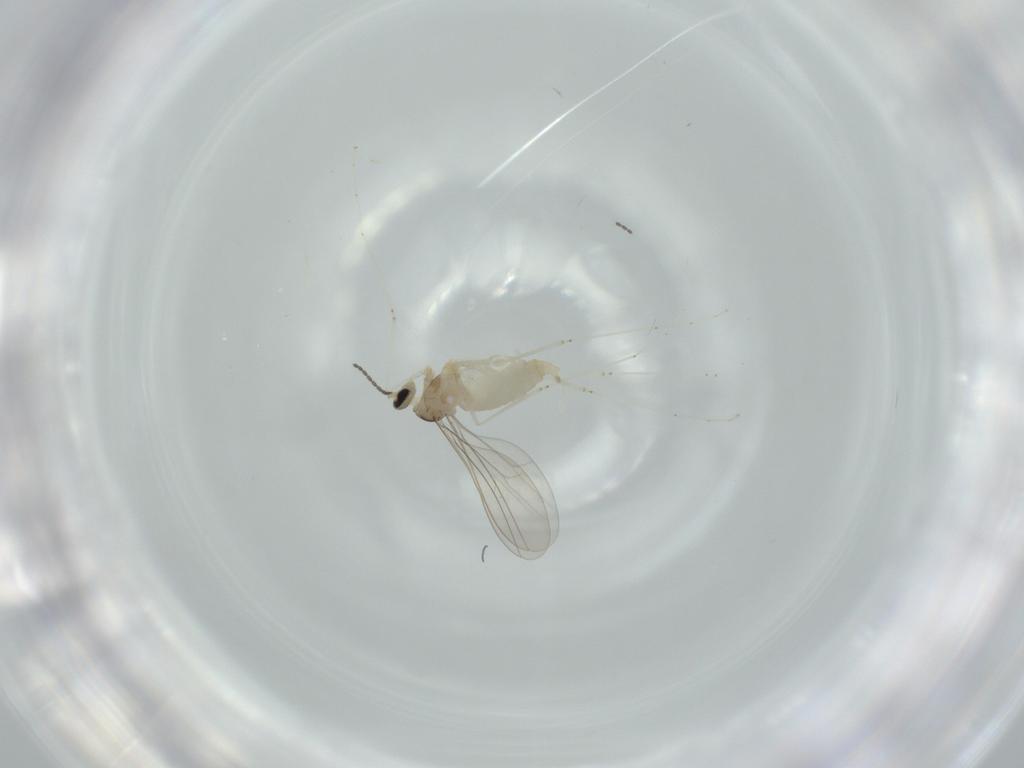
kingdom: Animalia
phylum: Arthropoda
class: Insecta
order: Diptera
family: Cecidomyiidae
